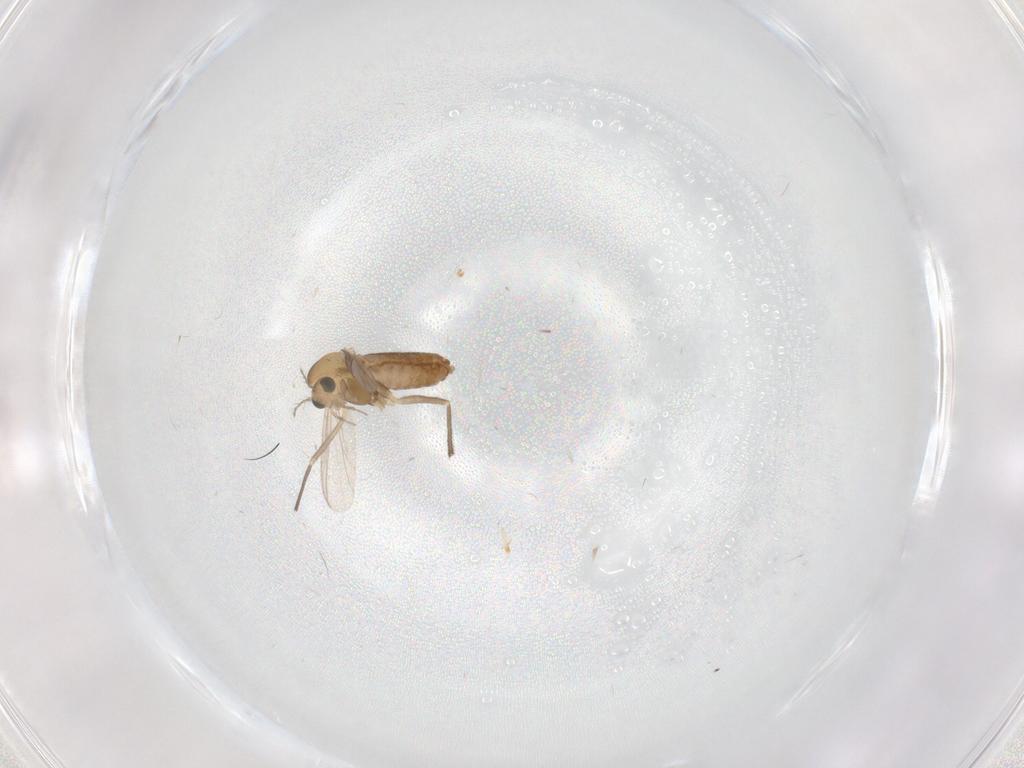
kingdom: Animalia
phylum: Arthropoda
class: Insecta
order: Diptera
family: Chironomidae
